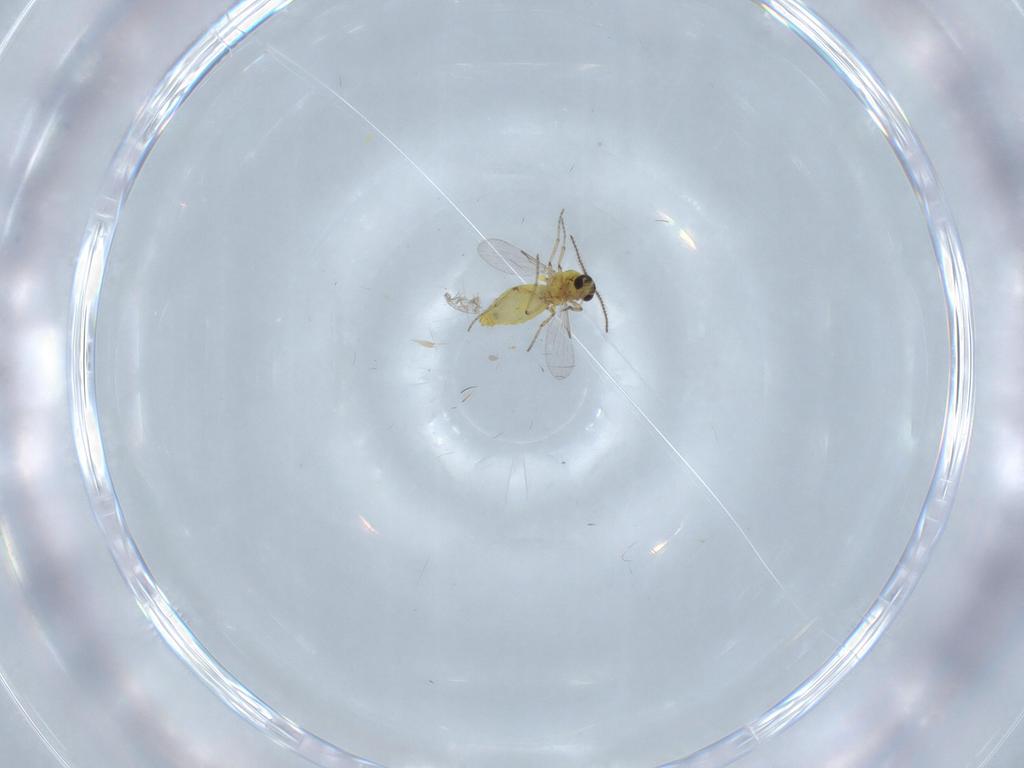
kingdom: Animalia
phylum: Arthropoda
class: Insecta
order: Diptera
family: Ceratopogonidae
